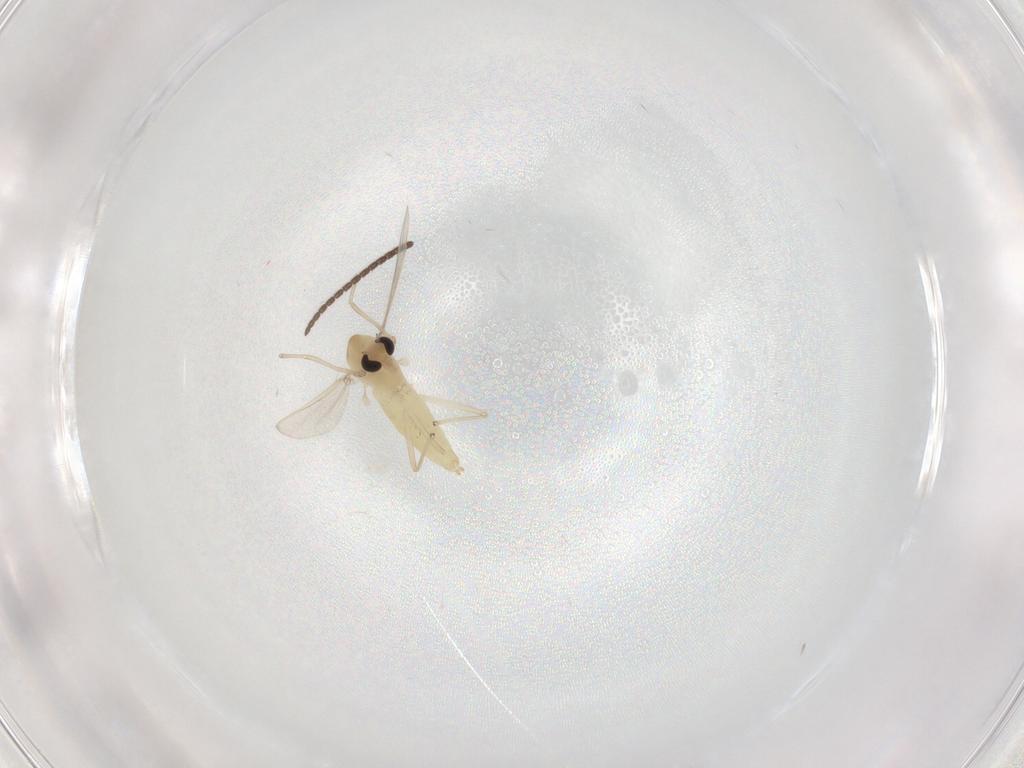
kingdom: Animalia
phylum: Arthropoda
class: Insecta
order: Diptera
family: Chironomidae
